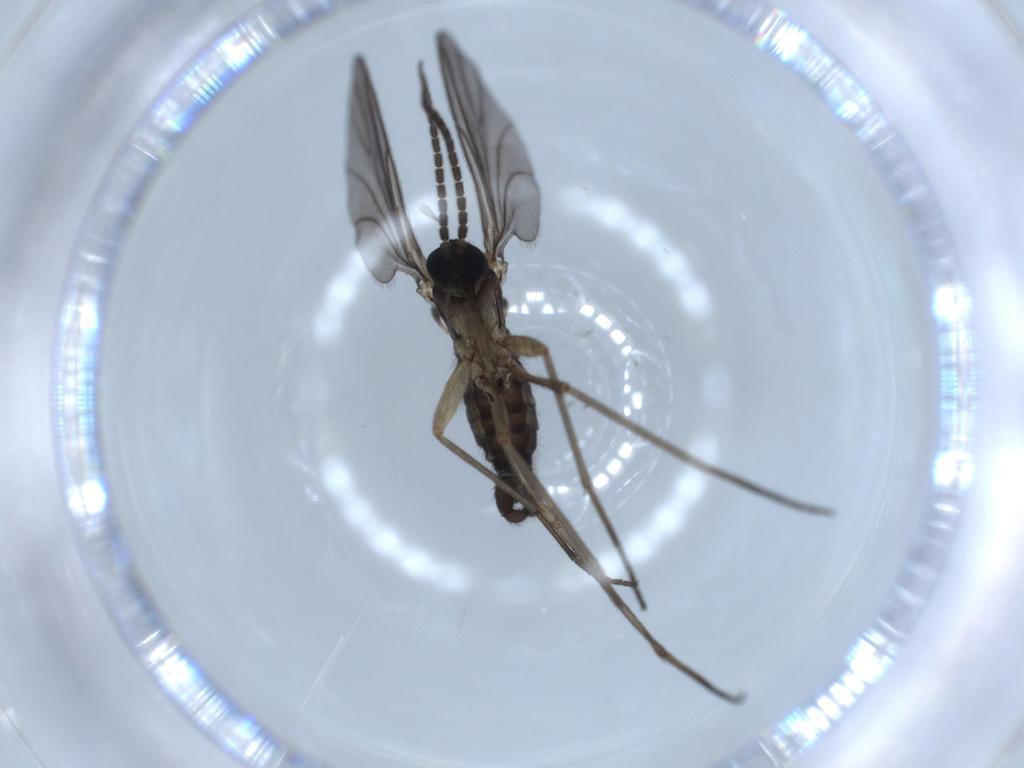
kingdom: Animalia
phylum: Arthropoda
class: Insecta
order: Diptera
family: Sciaridae
